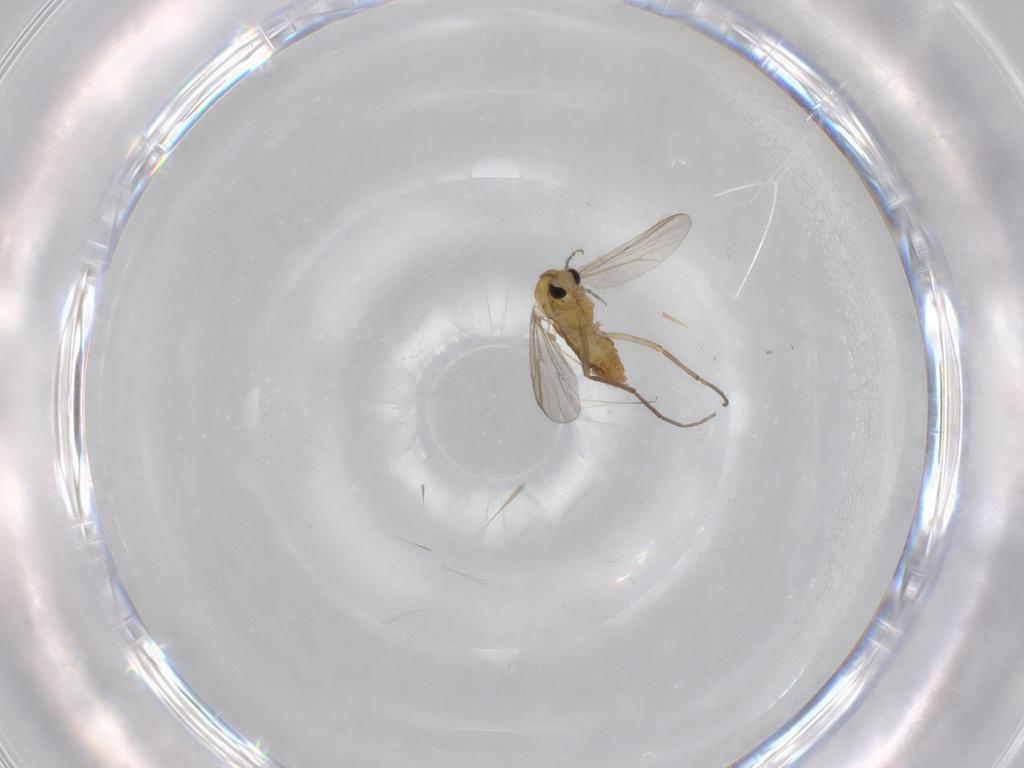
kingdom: Animalia
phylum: Arthropoda
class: Insecta
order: Diptera
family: Chironomidae
